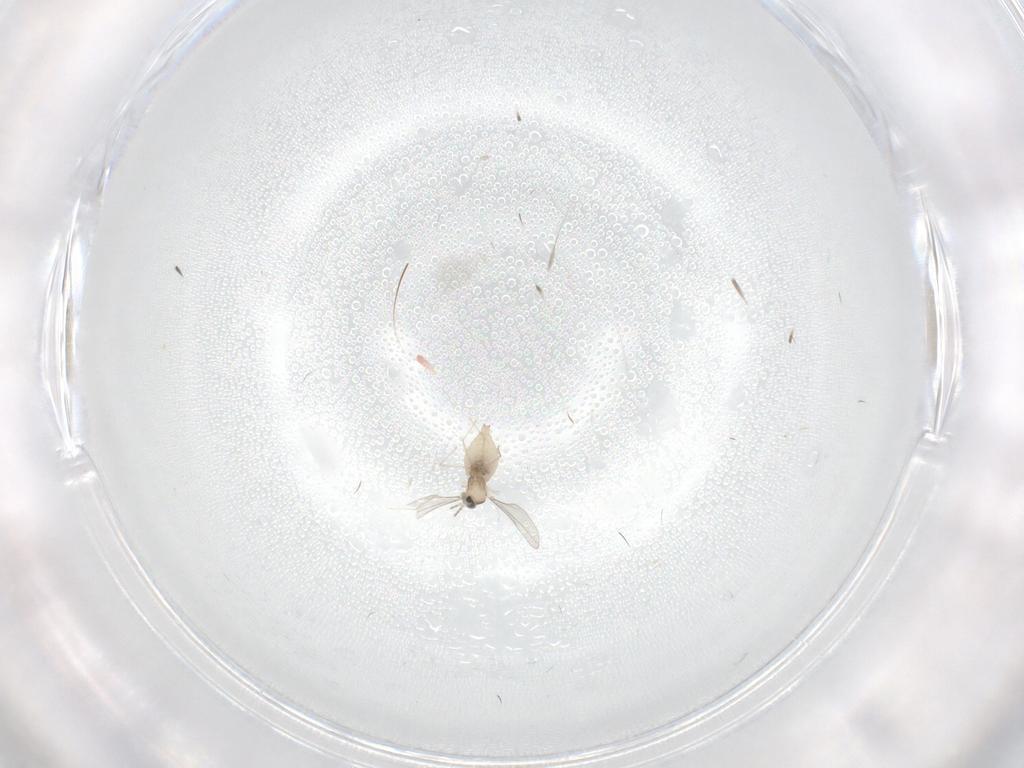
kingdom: Animalia
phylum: Arthropoda
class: Insecta
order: Diptera
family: Cecidomyiidae
